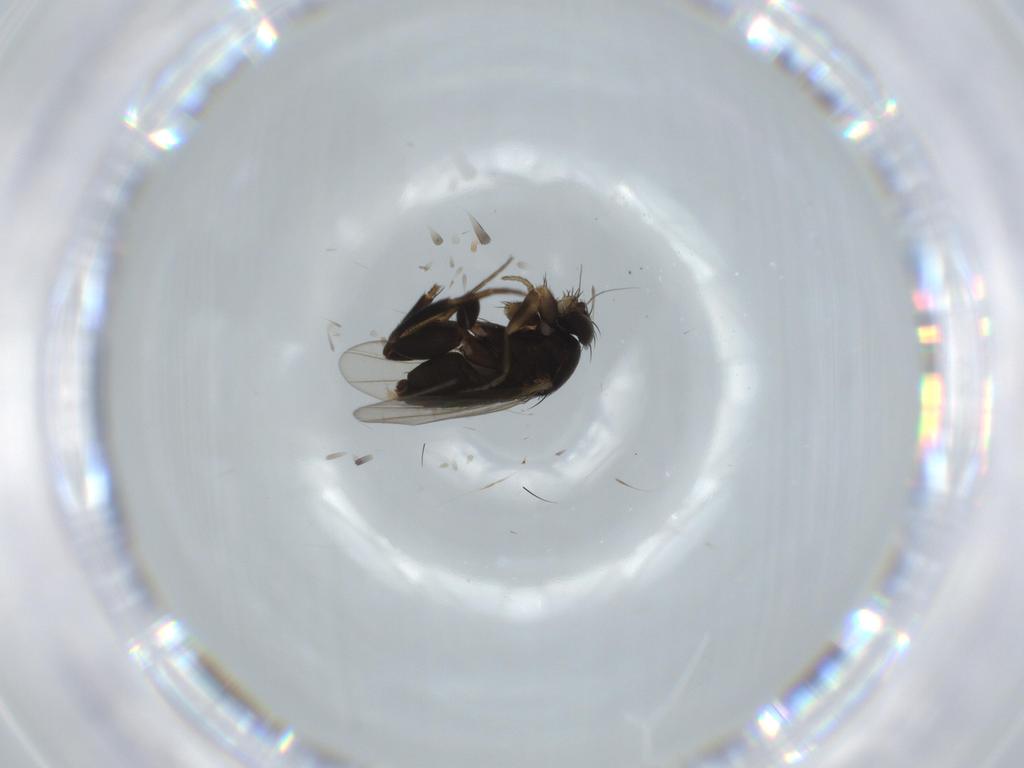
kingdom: Animalia
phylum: Arthropoda
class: Insecta
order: Diptera
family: Phoridae
